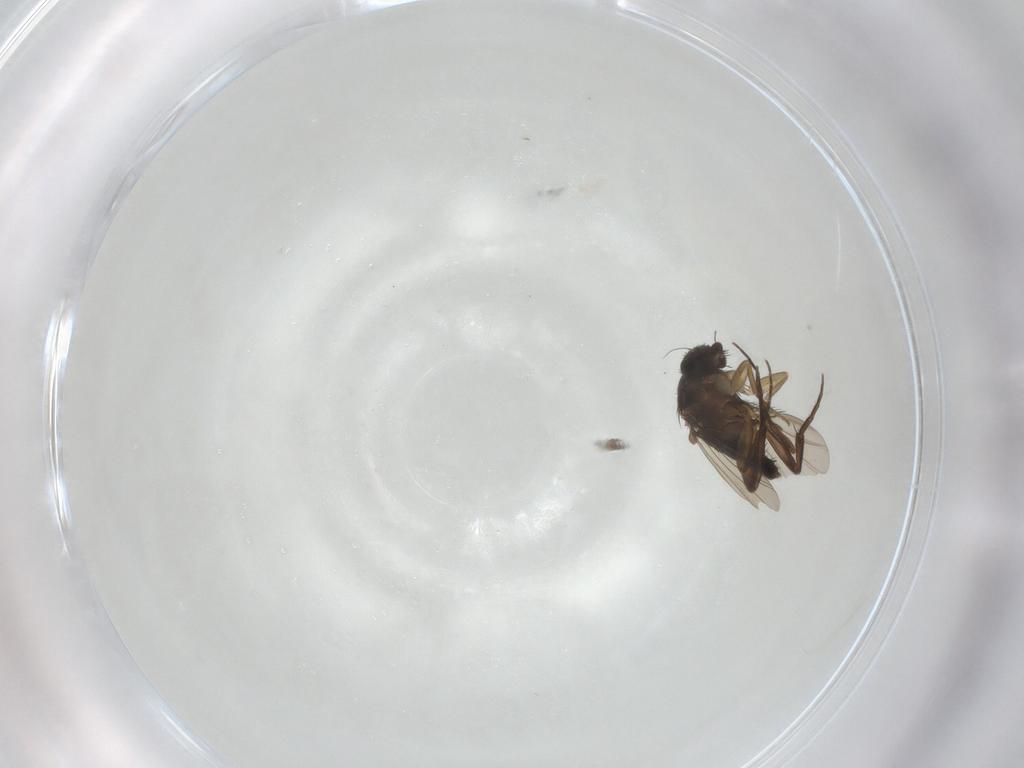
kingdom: Animalia
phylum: Arthropoda
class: Insecta
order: Diptera
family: Phoridae
